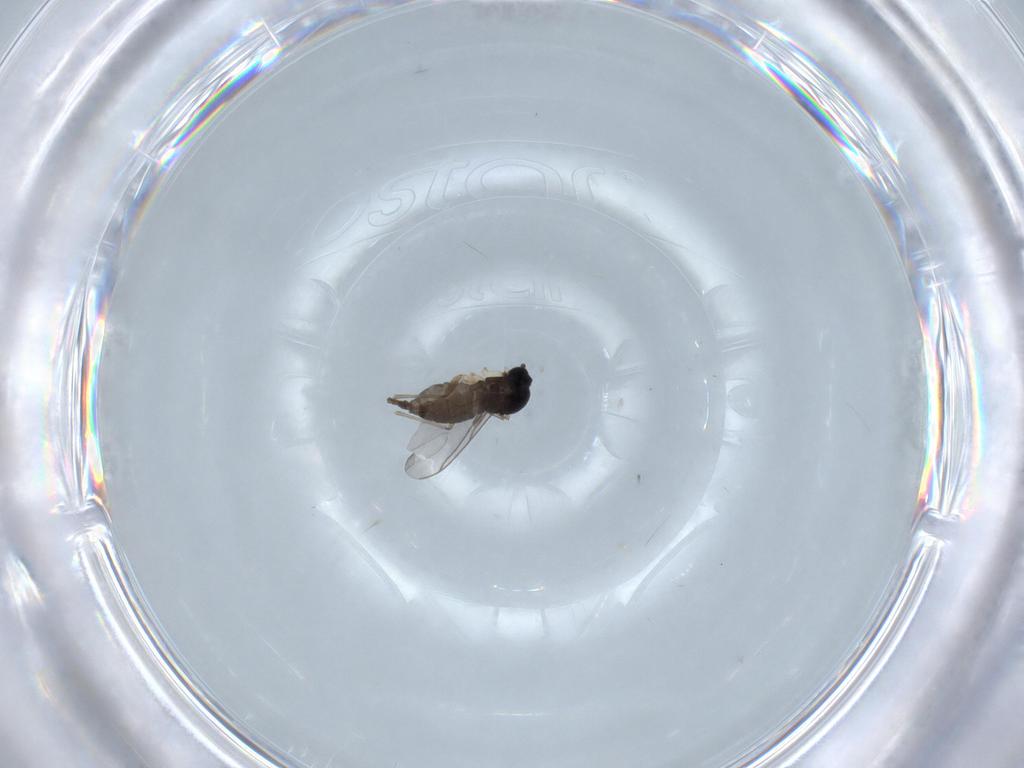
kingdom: Animalia
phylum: Arthropoda
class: Insecta
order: Diptera
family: Sciaridae
